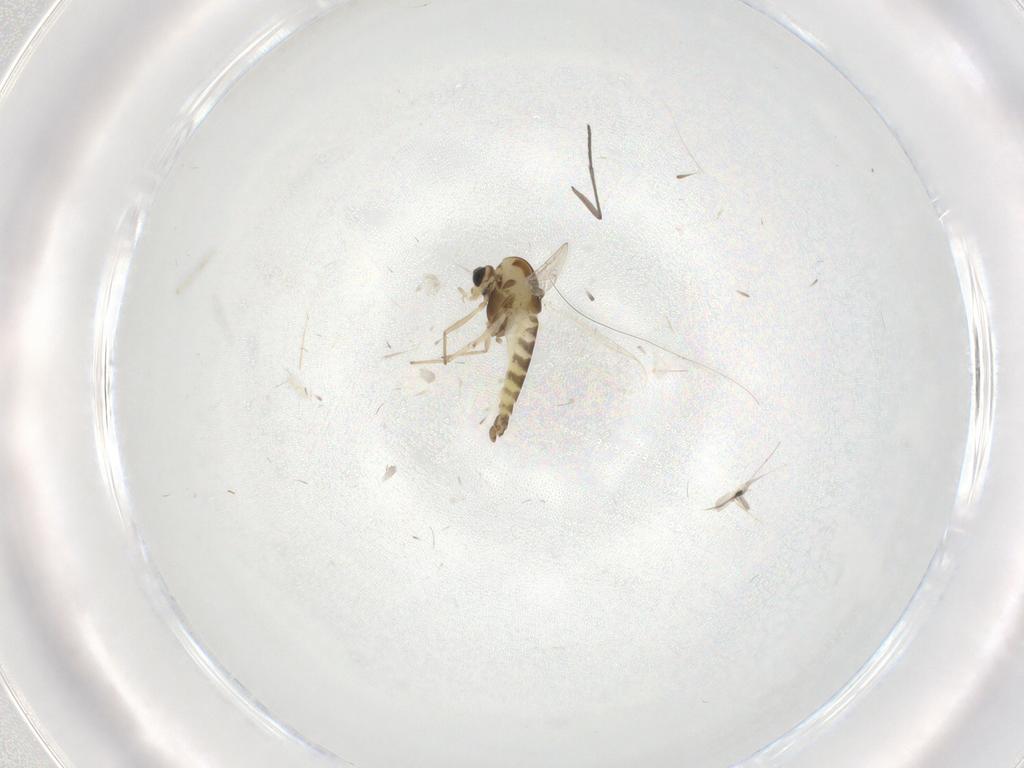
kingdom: Animalia
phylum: Arthropoda
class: Insecta
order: Diptera
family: Chironomidae
